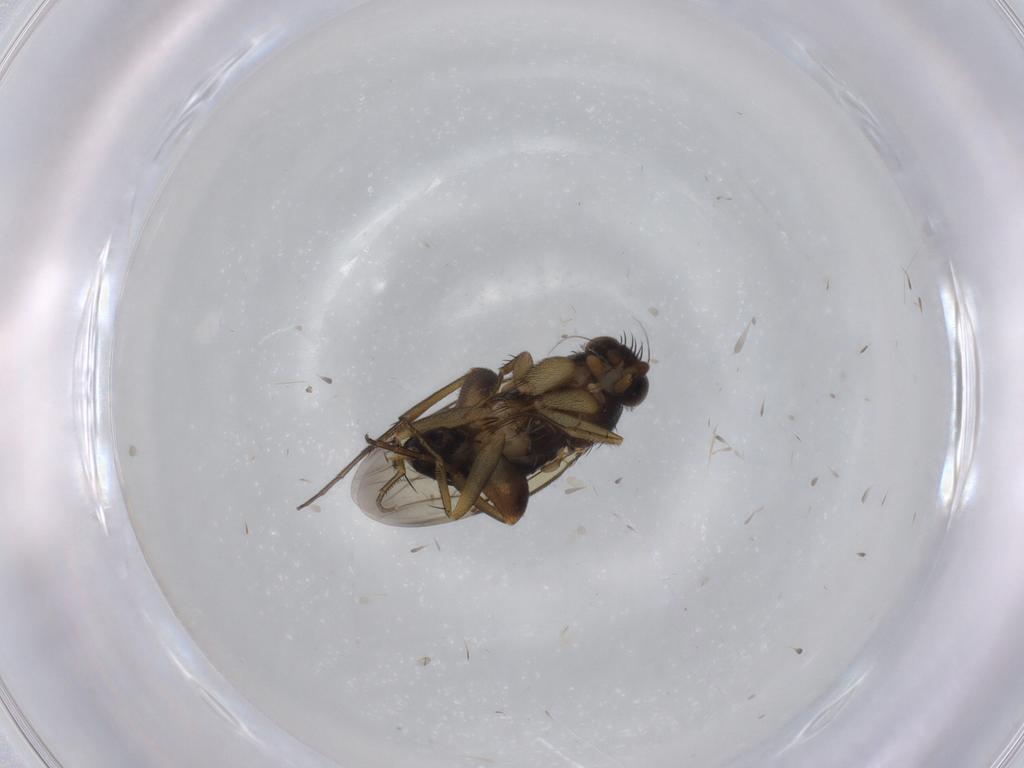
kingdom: Animalia
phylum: Arthropoda
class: Insecta
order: Diptera
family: Phoridae
